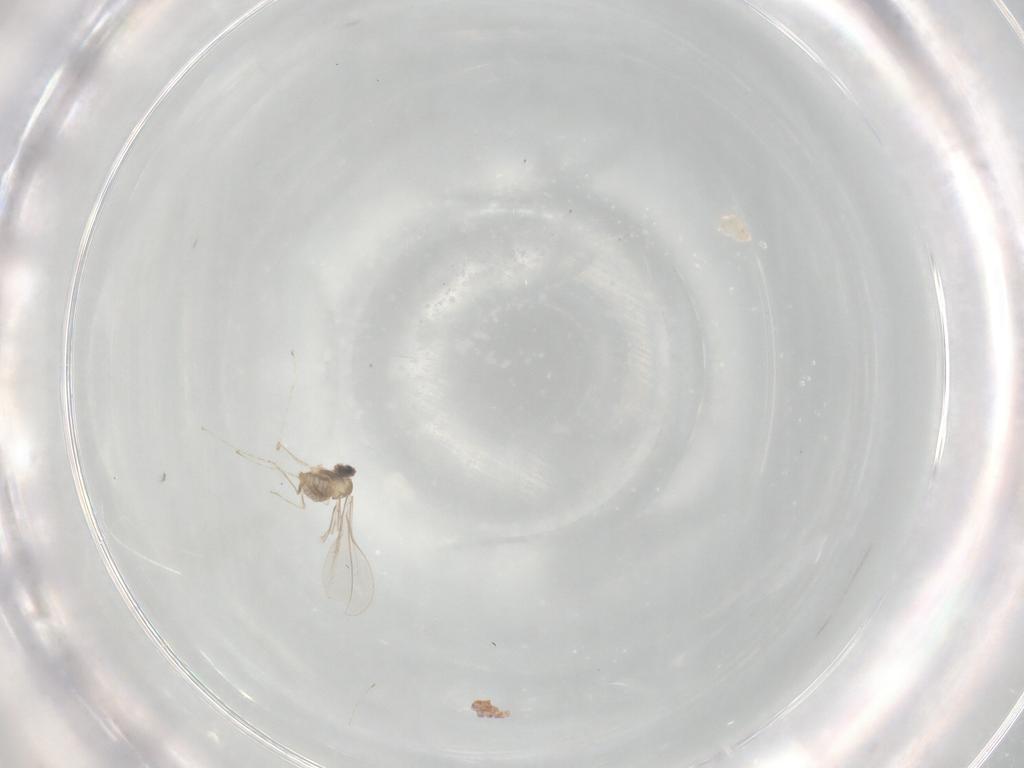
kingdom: Animalia
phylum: Arthropoda
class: Insecta
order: Diptera
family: Cecidomyiidae
